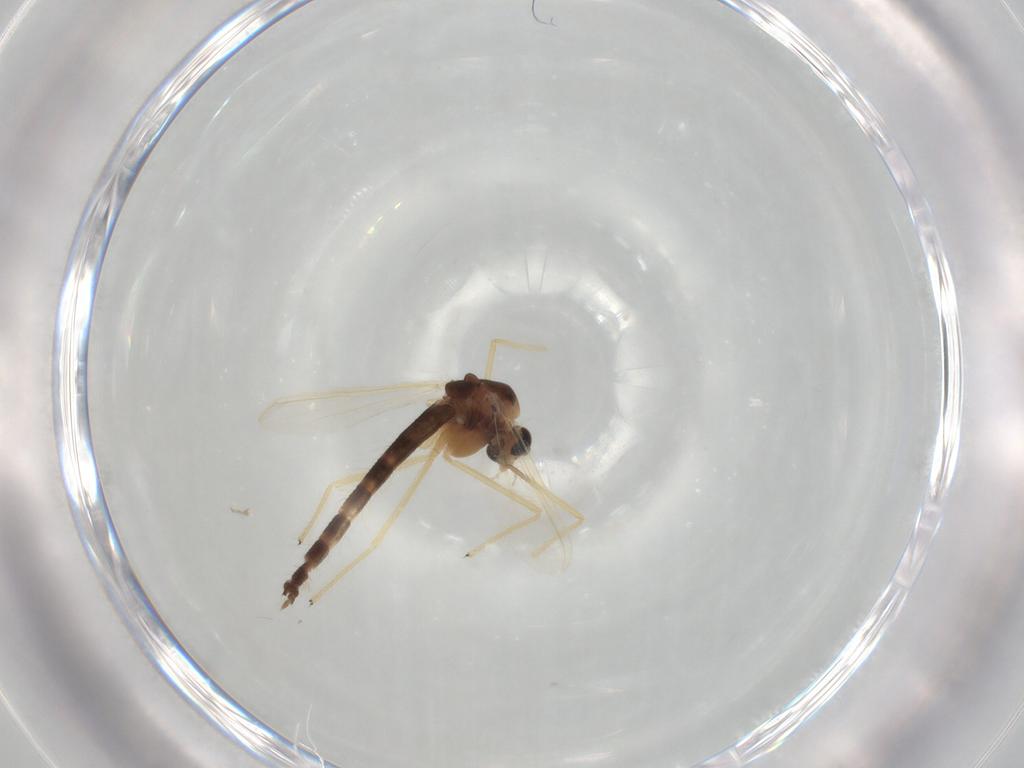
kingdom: Animalia
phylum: Arthropoda
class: Insecta
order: Diptera
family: Chironomidae
